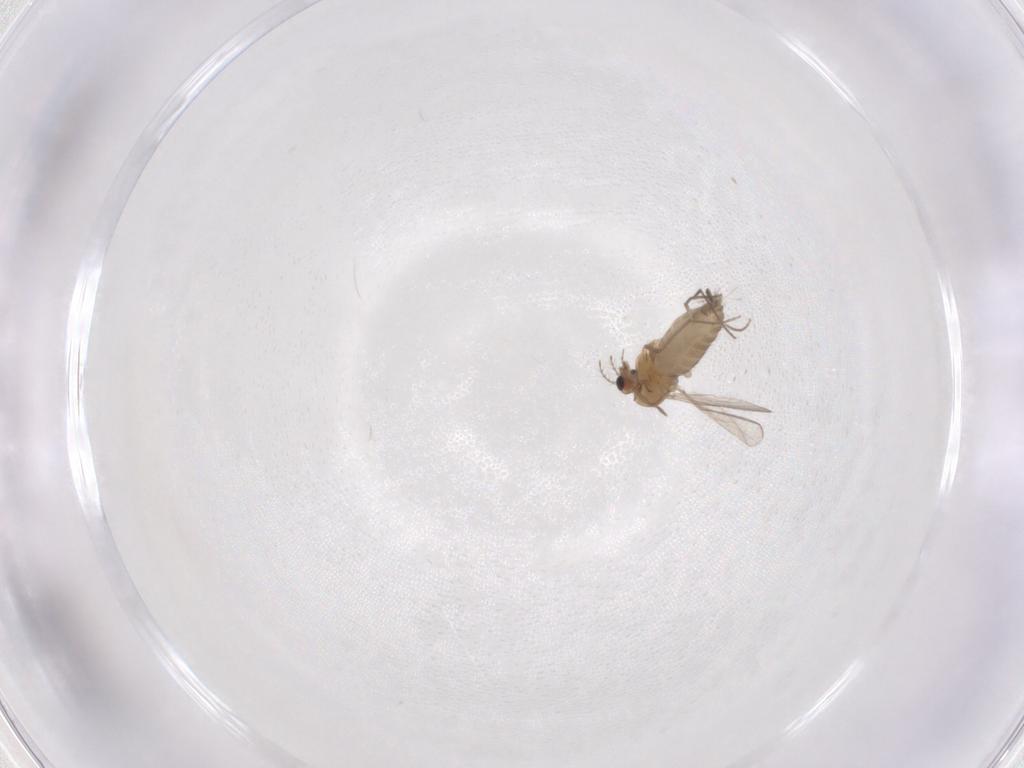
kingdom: Animalia
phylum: Arthropoda
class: Insecta
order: Diptera
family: Chironomidae
